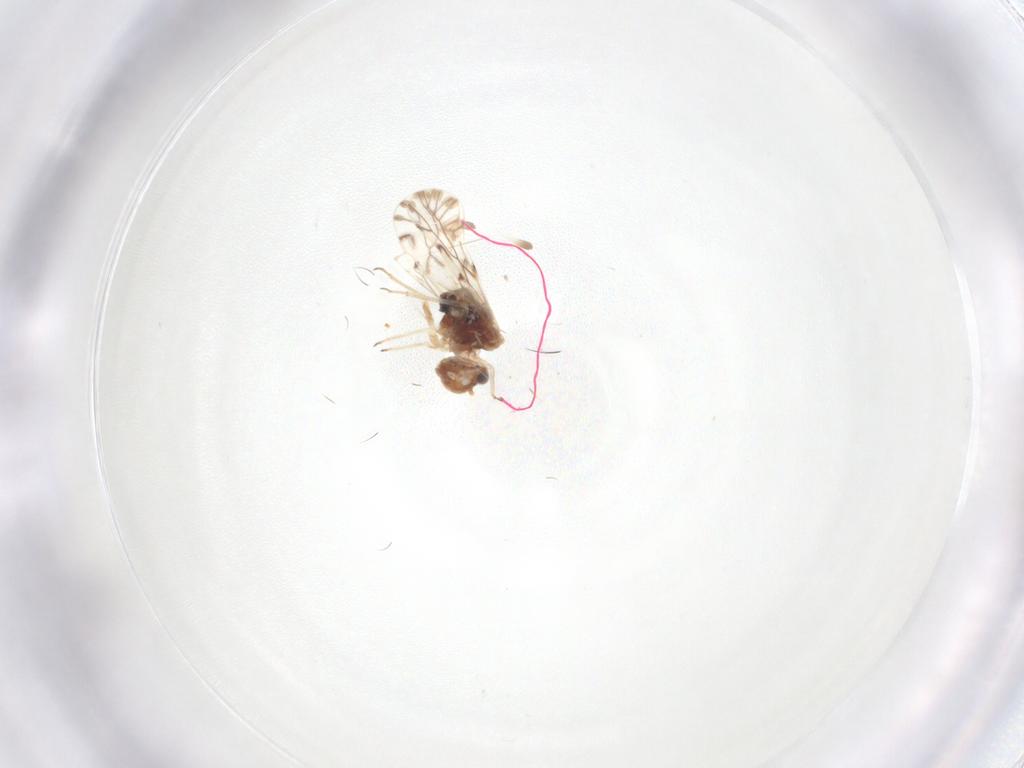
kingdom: Animalia
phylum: Arthropoda
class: Insecta
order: Psocodea
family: Lachesillidae
